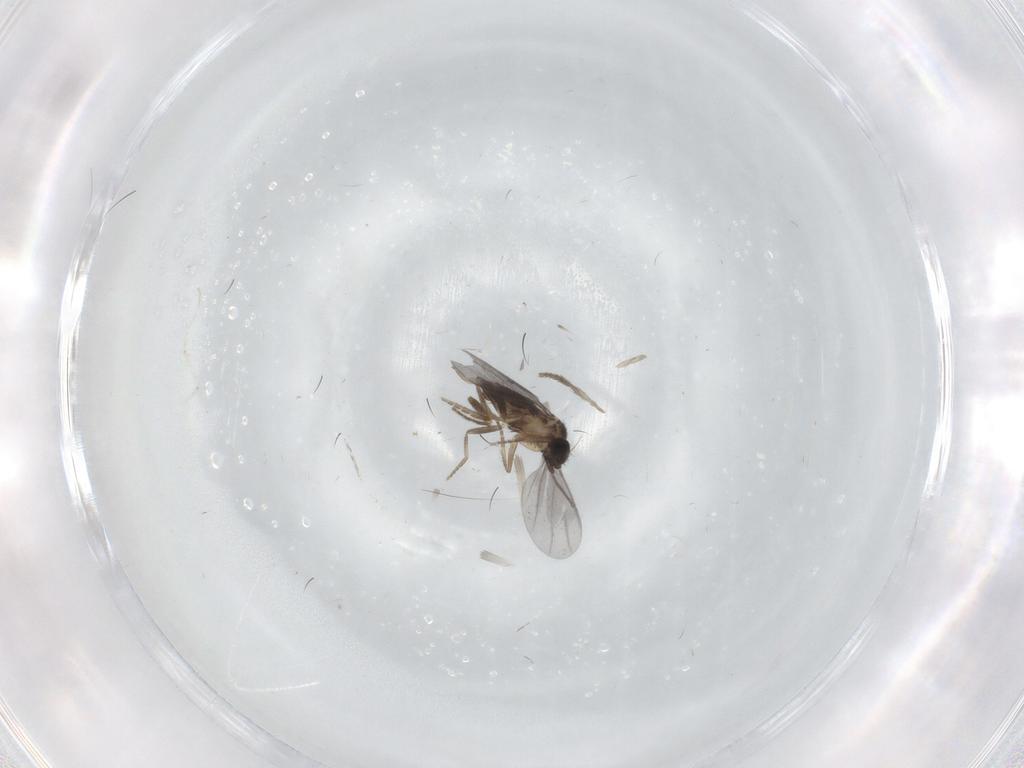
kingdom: Animalia
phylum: Arthropoda
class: Insecta
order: Diptera
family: Psychodidae
